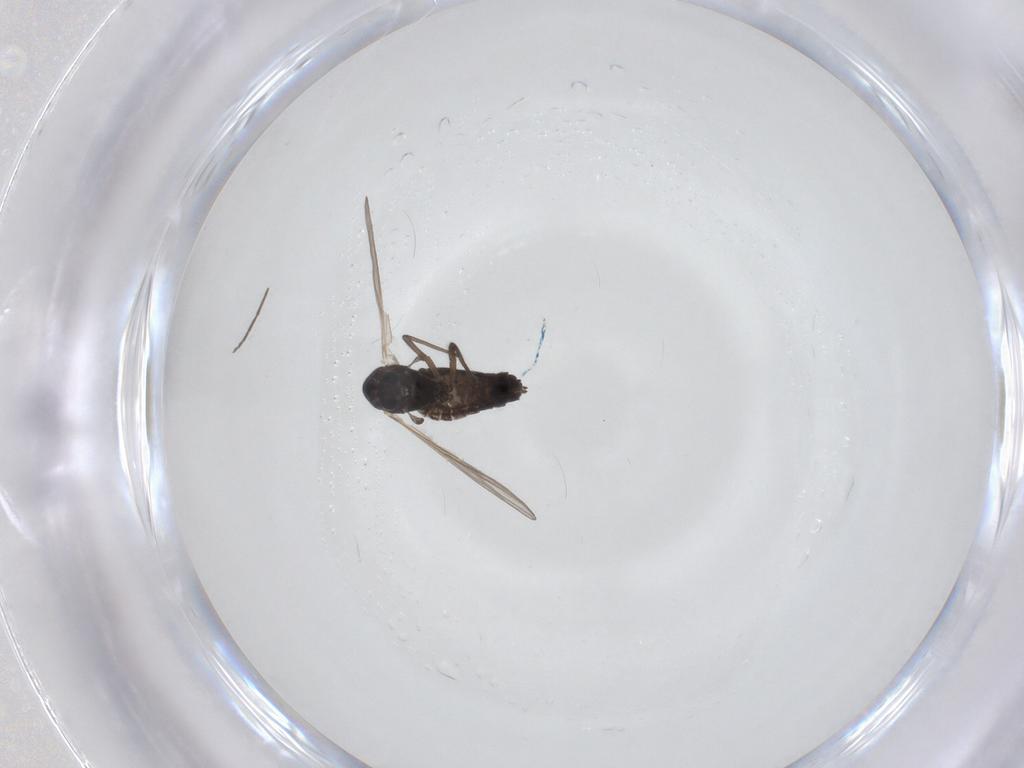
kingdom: Animalia
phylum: Arthropoda
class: Insecta
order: Diptera
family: Chironomidae
